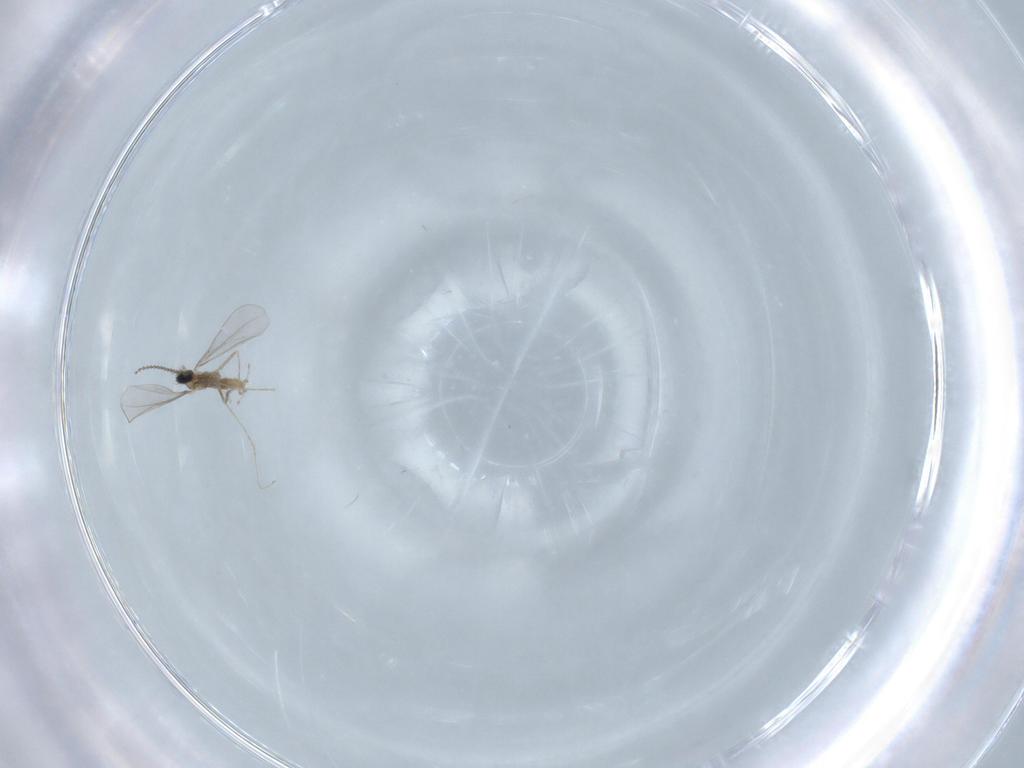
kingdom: Animalia
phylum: Arthropoda
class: Insecta
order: Diptera
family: Cecidomyiidae
